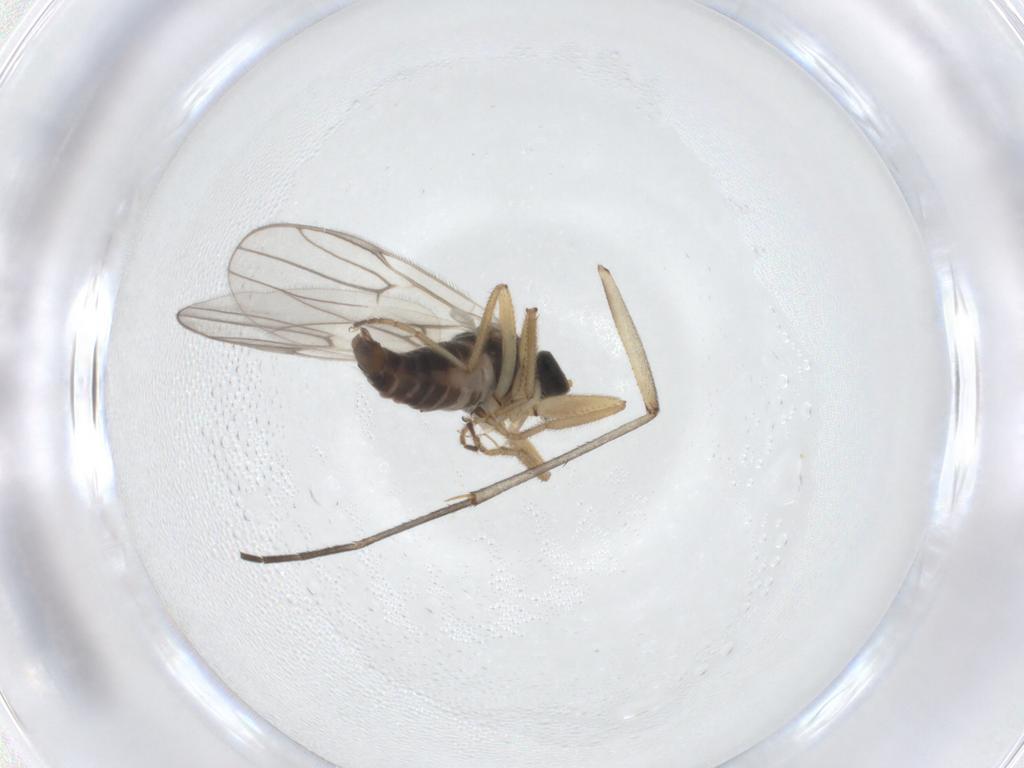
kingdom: Animalia
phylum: Arthropoda
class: Insecta
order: Diptera
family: Hybotidae
